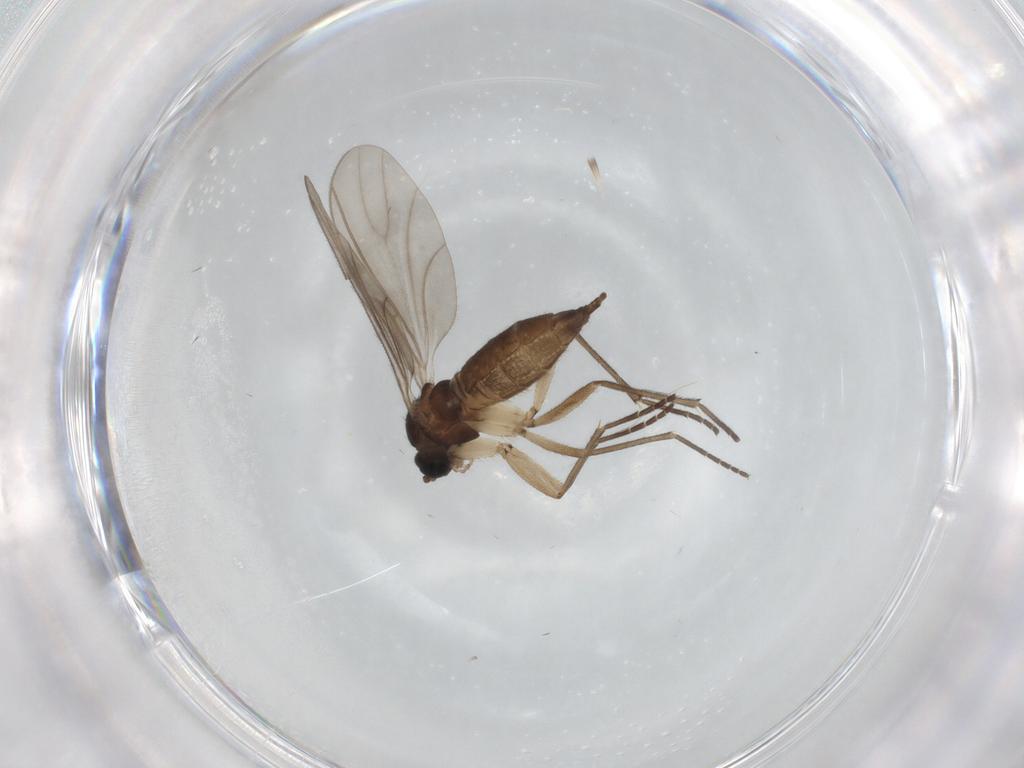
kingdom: Animalia
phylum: Arthropoda
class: Insecta
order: Diptera
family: Sciaridae
